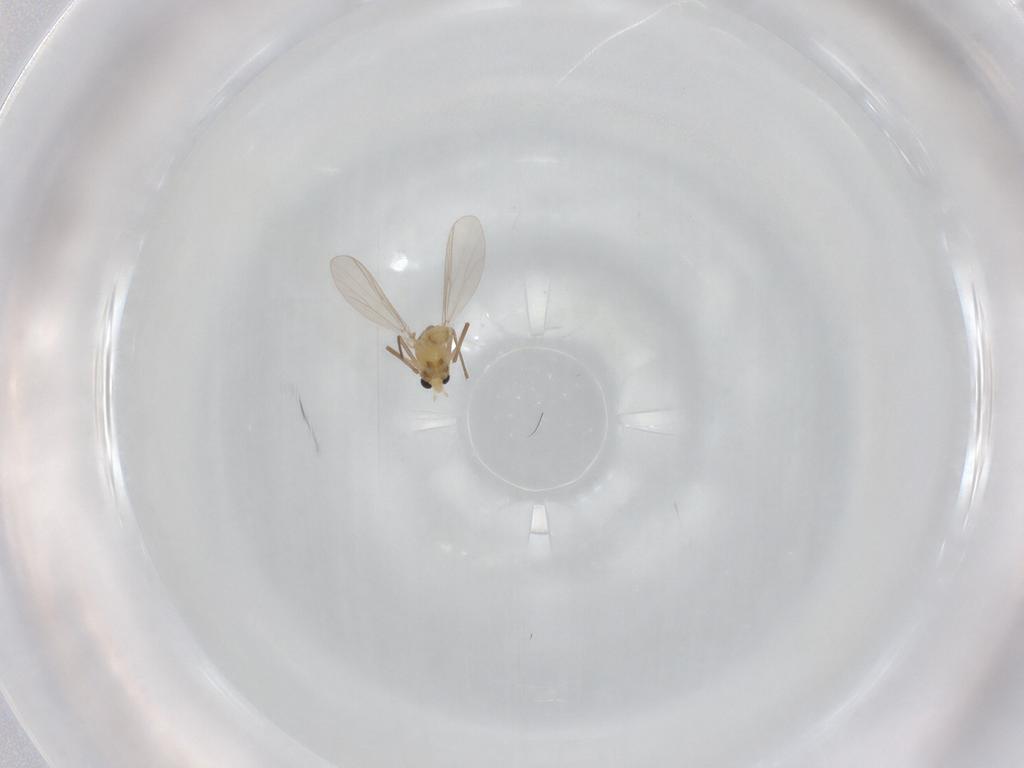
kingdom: Animalia
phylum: Arthropoda
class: Insecta
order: Diptera
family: Chironomidae
